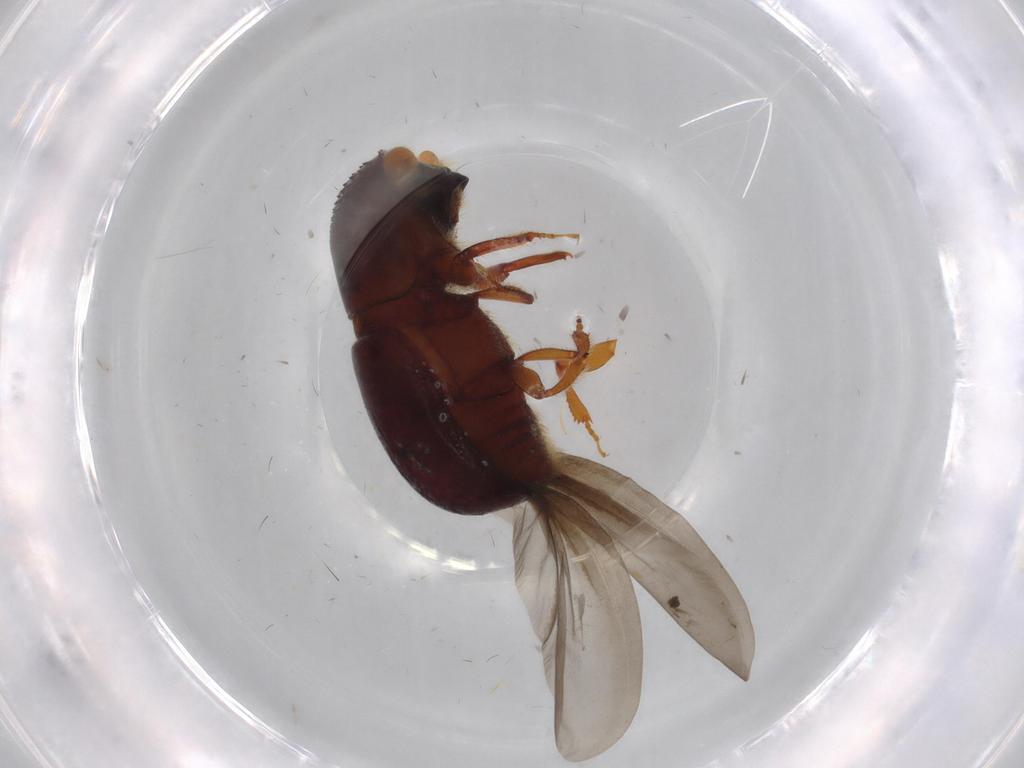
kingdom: Animalia
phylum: Arthropoda
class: Insecta
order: Coleoptera
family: Curculionidae
